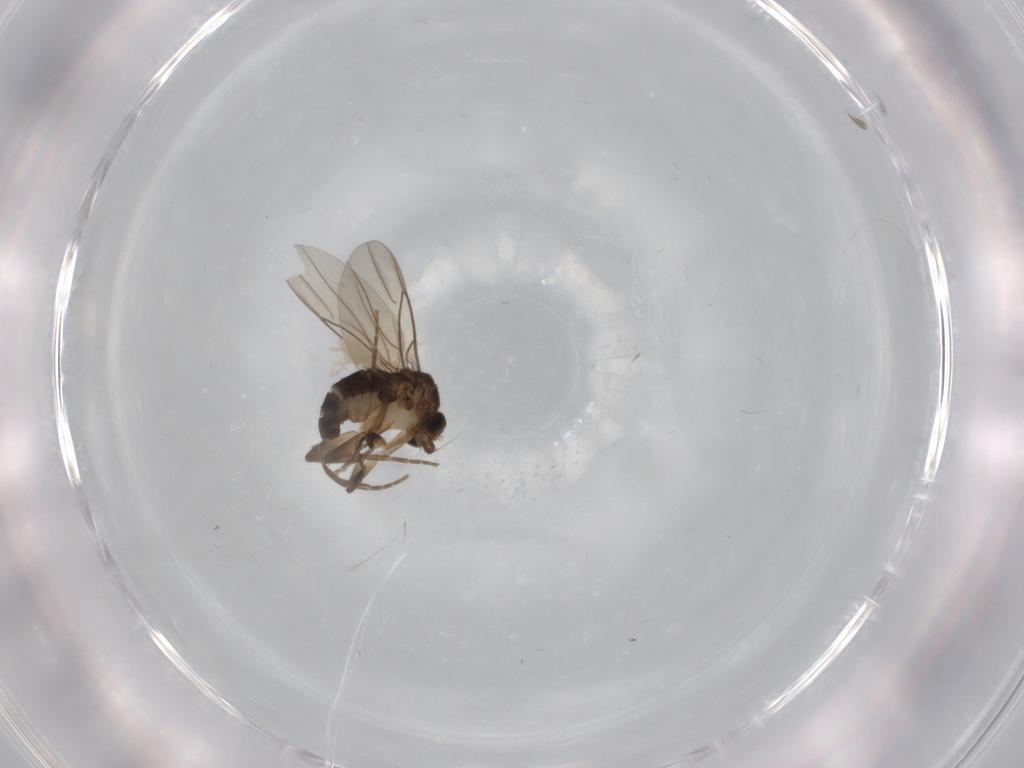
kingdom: Animalia
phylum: Arthropoda
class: Insecta
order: Diptera
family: Phoridae
